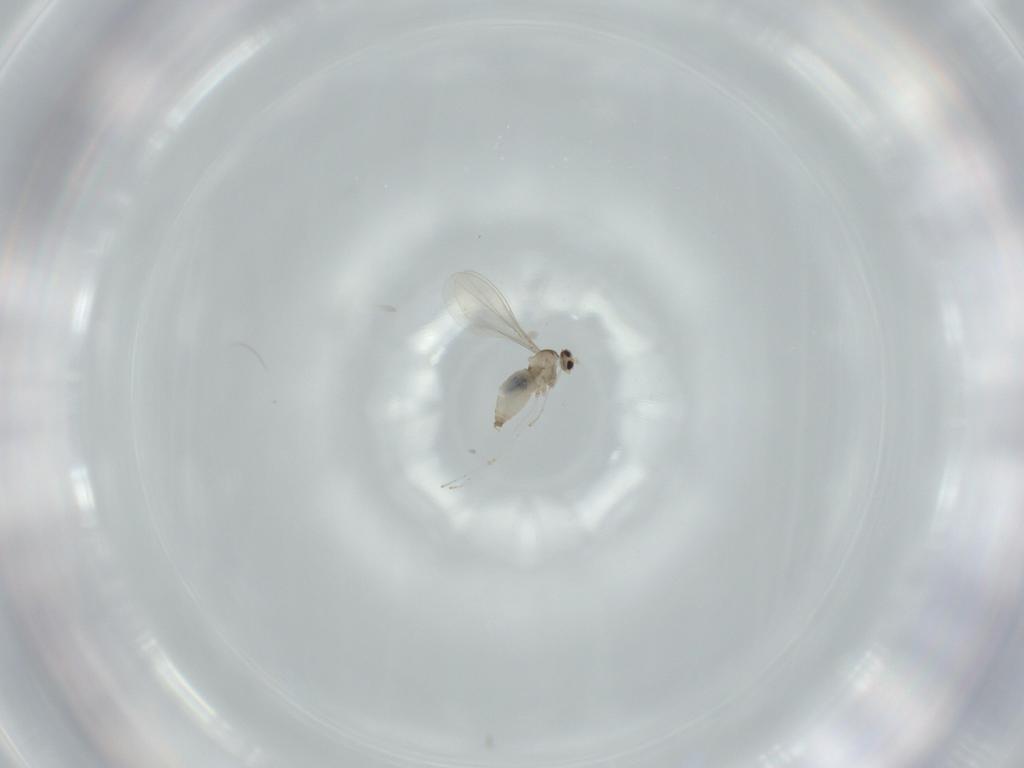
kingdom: Animalia
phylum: Arthropoda
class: Insecta
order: Diptera
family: Cecidomyiidae
